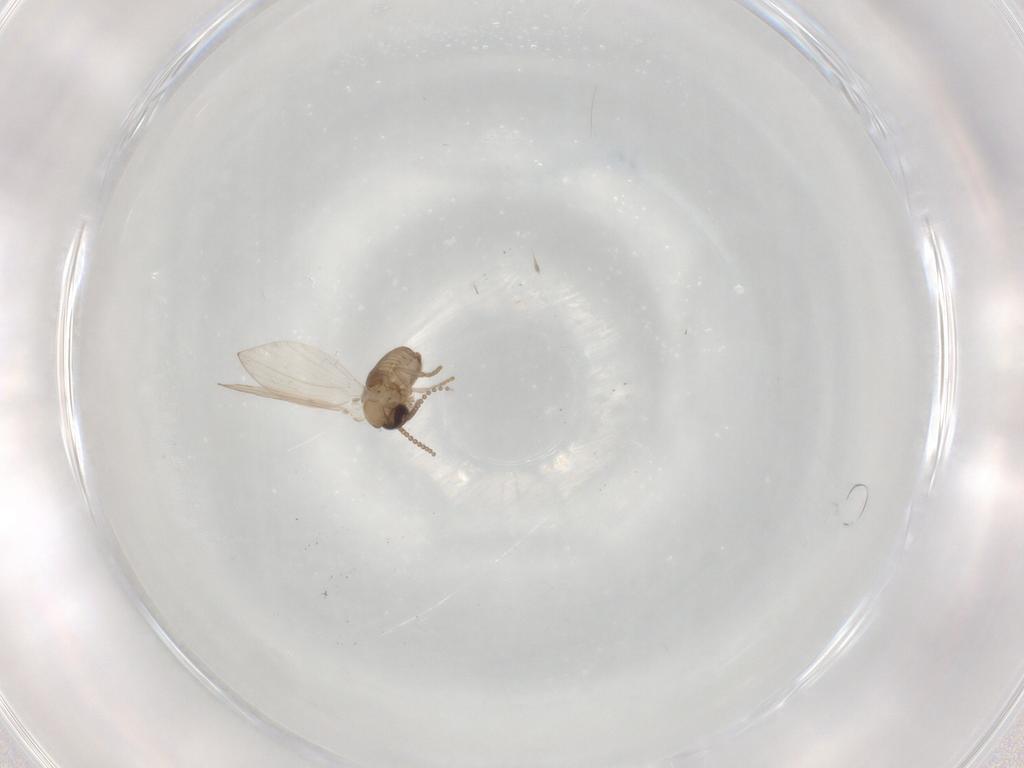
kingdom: Animalia
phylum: Arthropoda
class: Insecta
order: Diptera
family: Psychodidae
